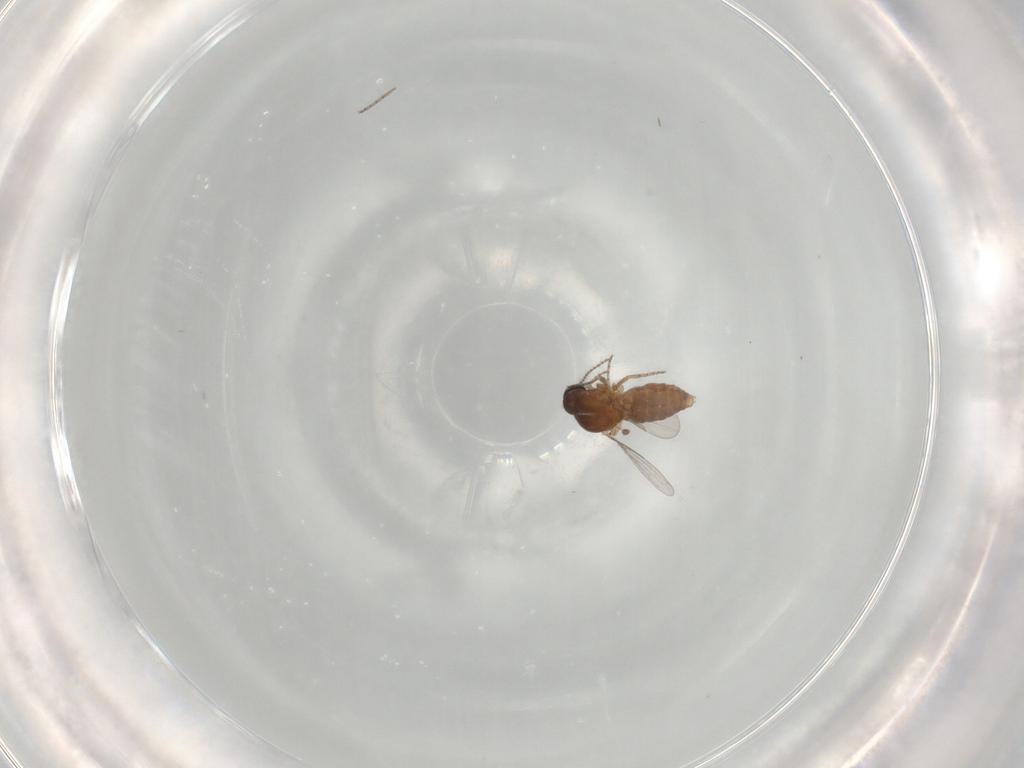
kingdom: Animalia
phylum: Arthropoda
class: Insecta
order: Diptera
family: Ceratopogonidae
